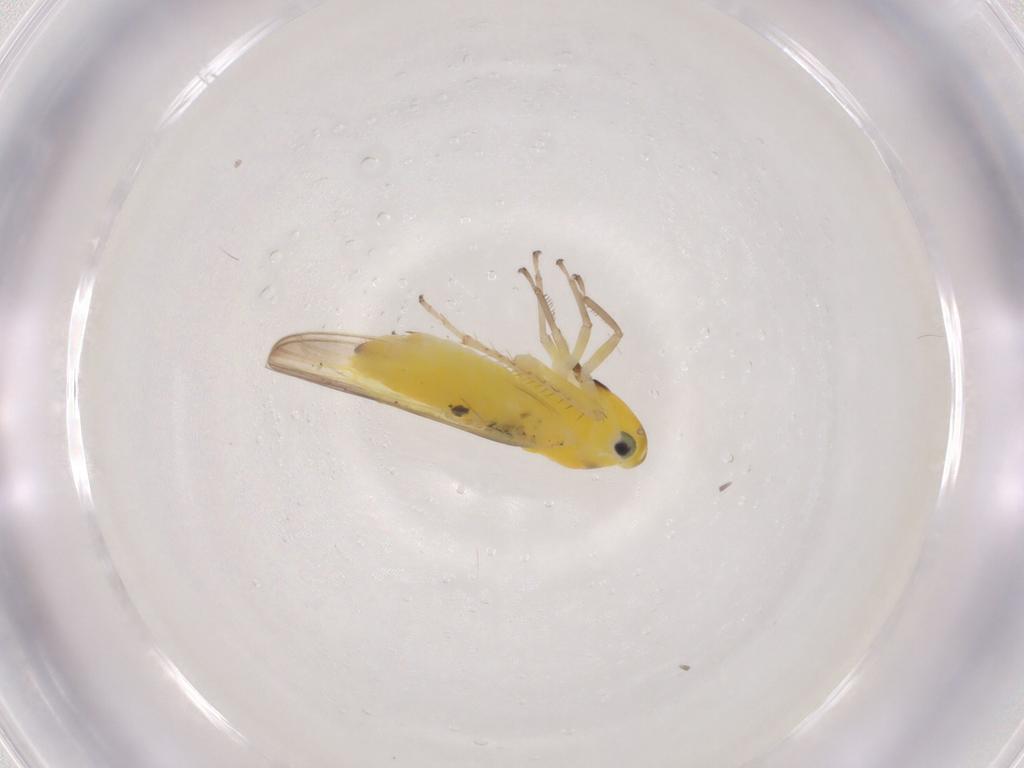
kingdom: Animalia
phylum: Arthropoda
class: Insecta
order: Hemiptera
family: Cicadellidae
